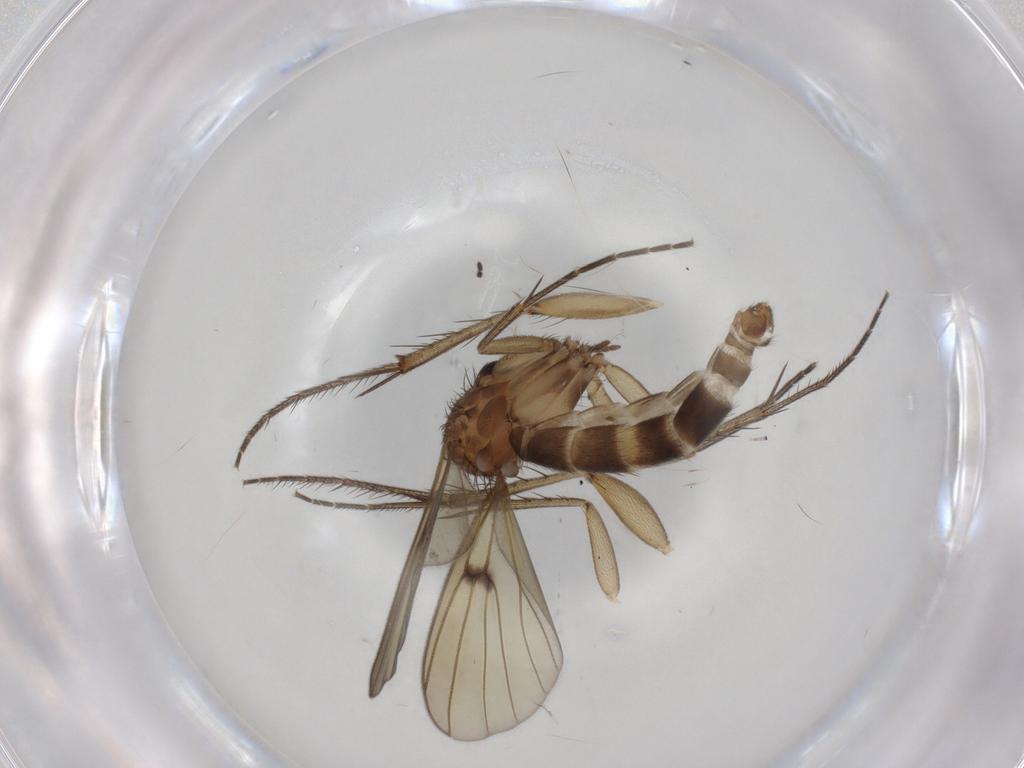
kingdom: Animalia
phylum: Arthropoda
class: Insecta
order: Diptera
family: Mycetophilidae
